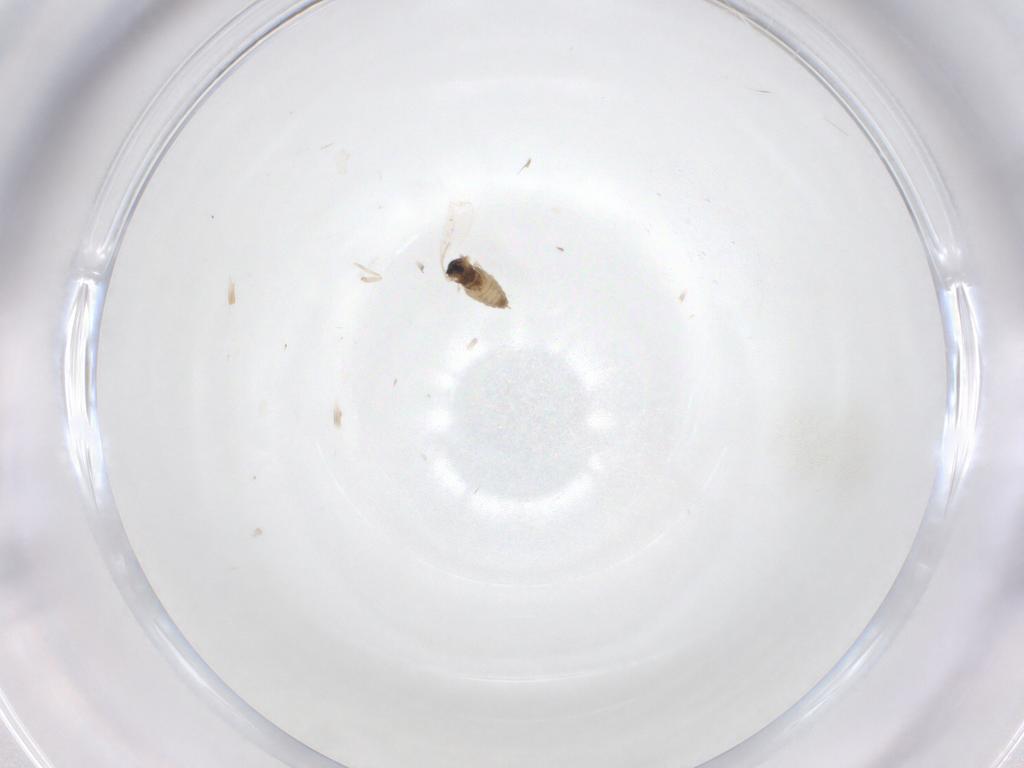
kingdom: Animalia
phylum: Arthropoda
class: Insecta
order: Diptera
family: Cecidomyiidae
